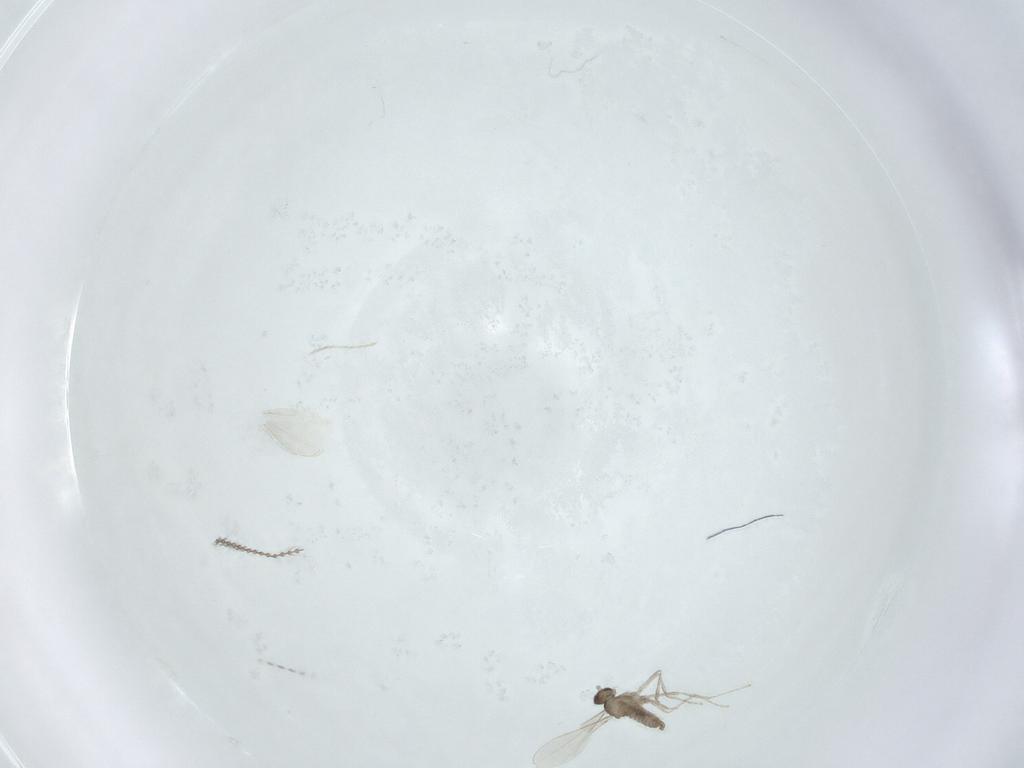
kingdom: Animalia
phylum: Arthropoda
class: Insecta
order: Diptera
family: Cecidomyiidae
